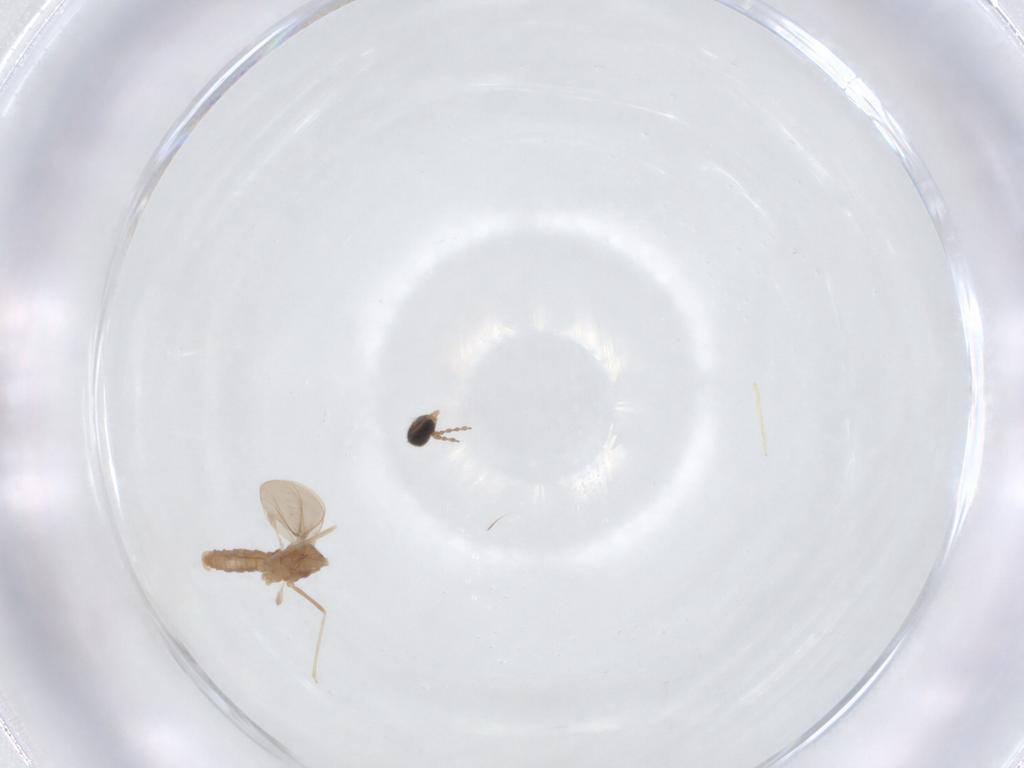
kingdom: Animalia
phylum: Arthropoda
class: Insecta
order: Diptera
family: Cecidomyiidae
